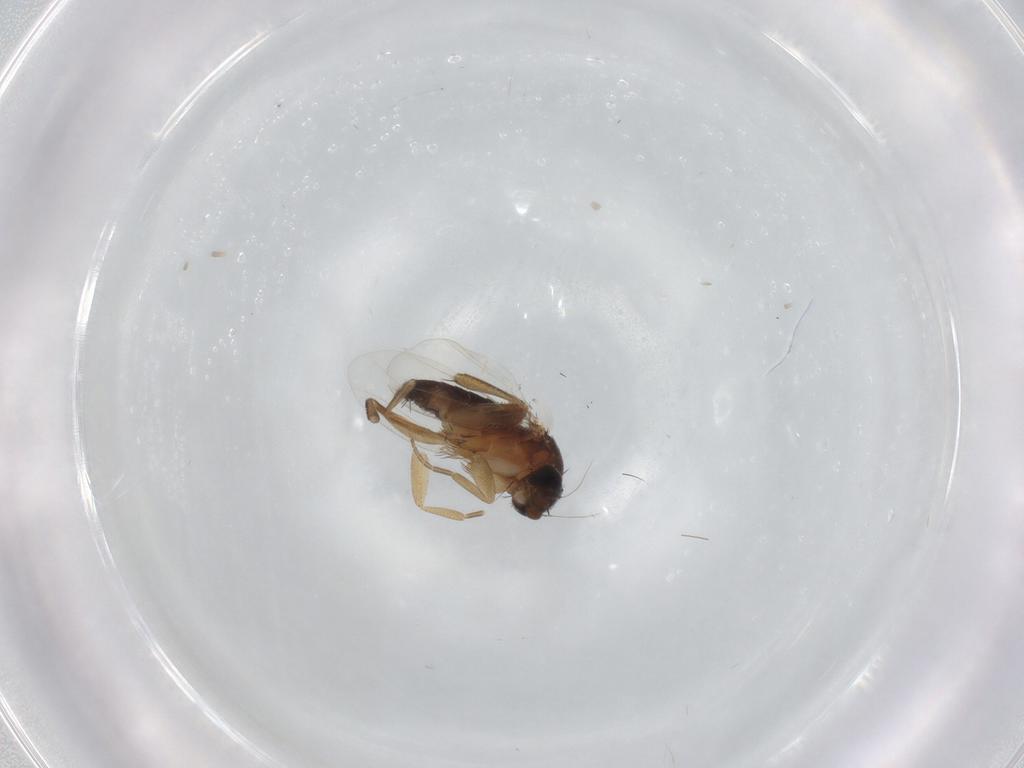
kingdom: Animalia
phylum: Arthropoda
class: Insecta
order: Diptera
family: Phoridae
